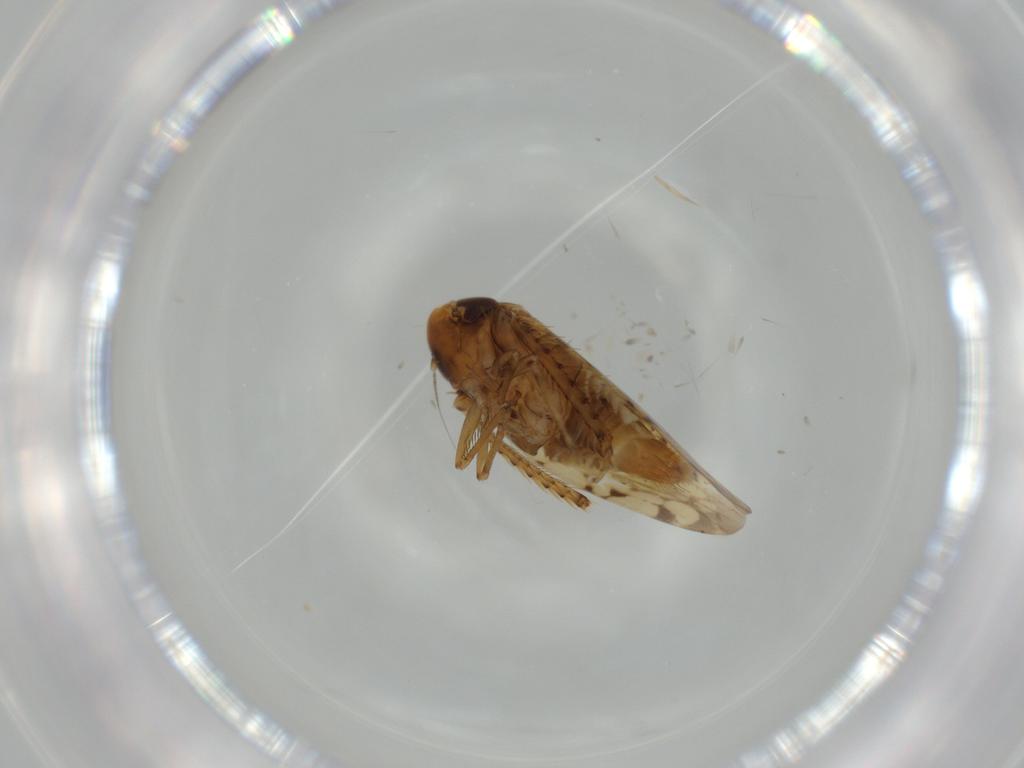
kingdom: Animalia
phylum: Arthropoda
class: Insecta
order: Hemiptera
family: Cicadellidae
